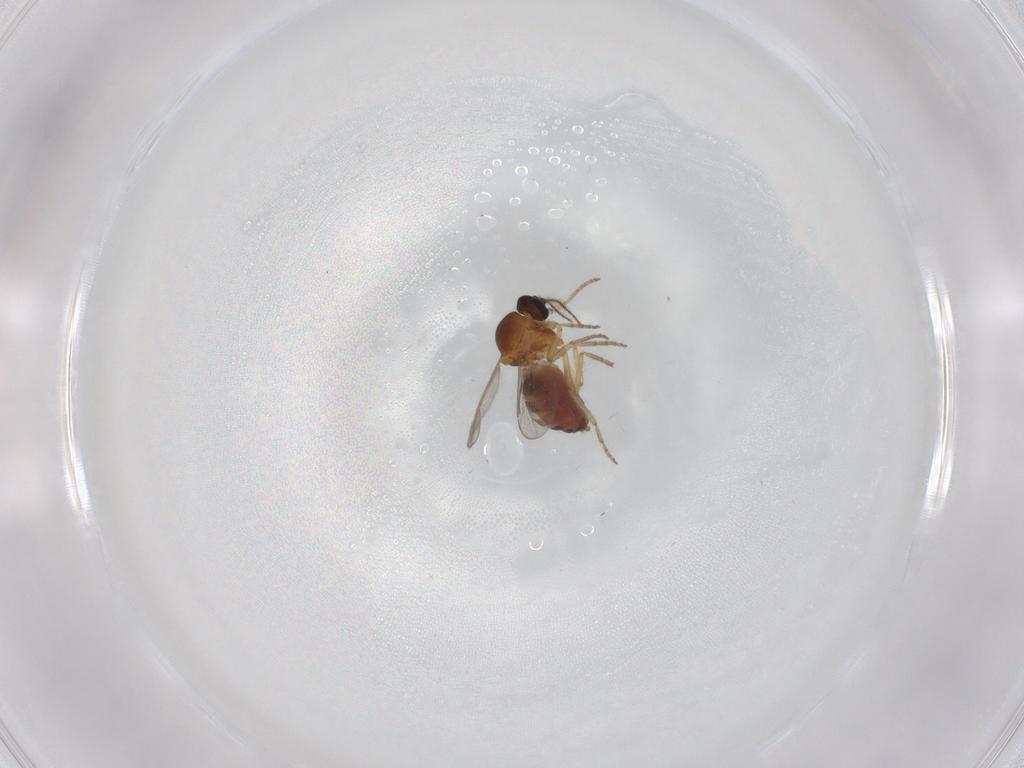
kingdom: Animalia
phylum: Arthropoda
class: Insecta
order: Diptera
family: Ceratopogonidae
